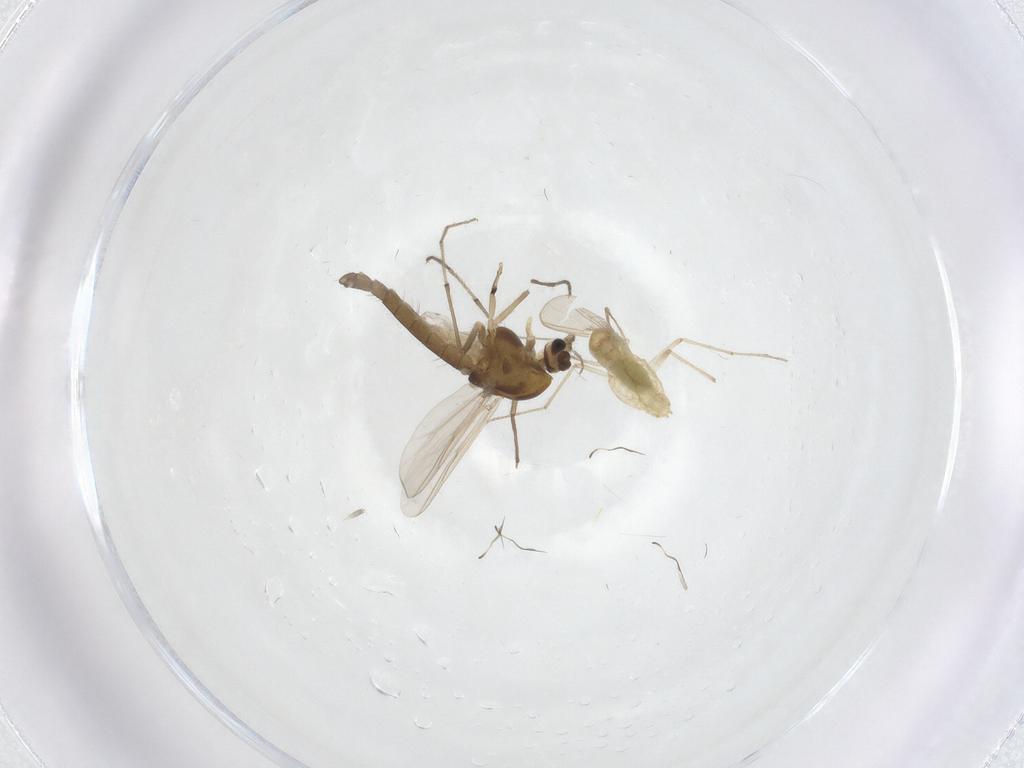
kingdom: Animalia
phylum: Arthropoda
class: Insecta
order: Diptera
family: Chironomidae
